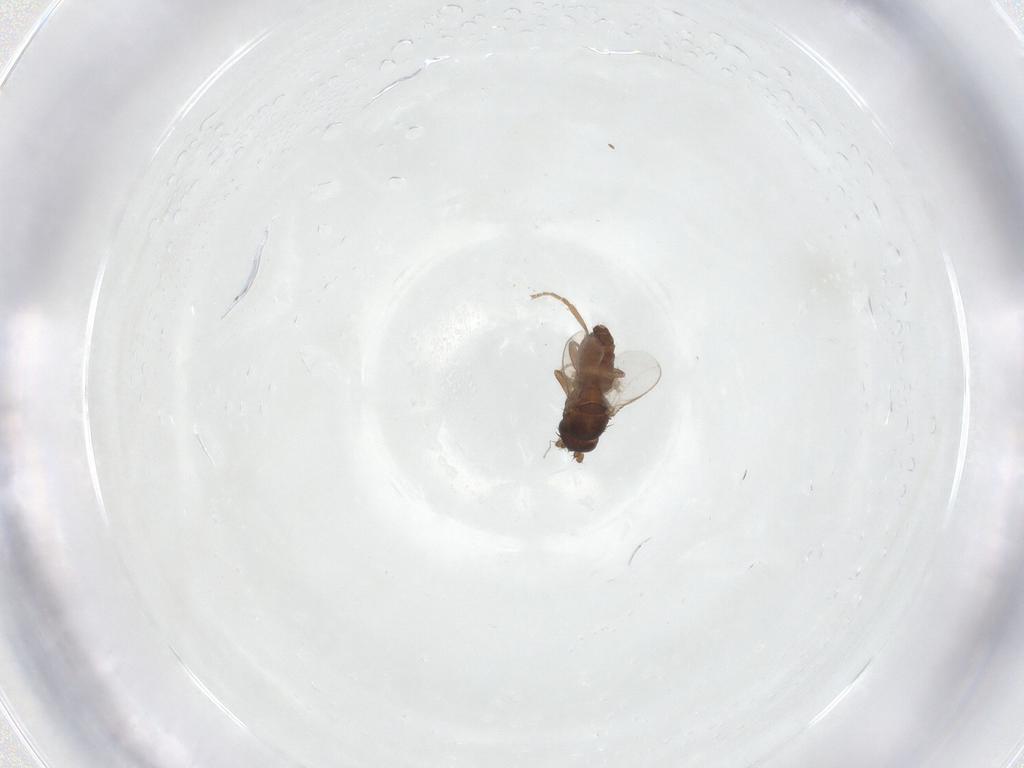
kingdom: Animalia
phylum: Arthropoda
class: Insecta
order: Diptera
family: Sphaeroceridae
